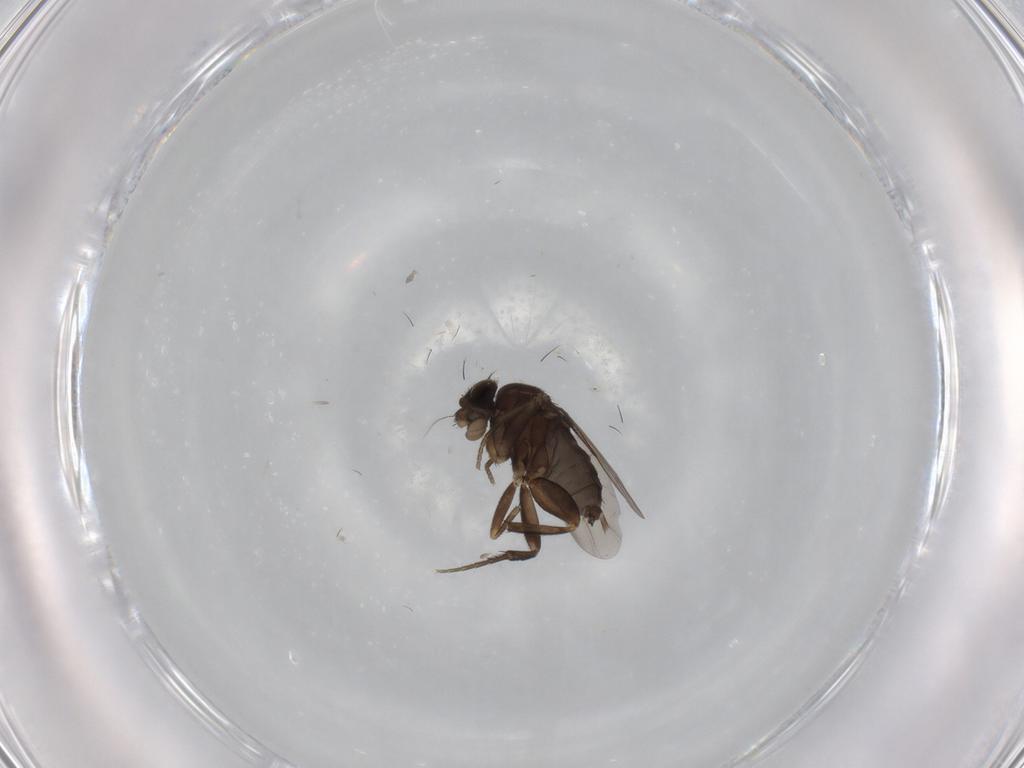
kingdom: Animalia
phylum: Arthropoda
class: Insecta
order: Diptera
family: Phoridae
